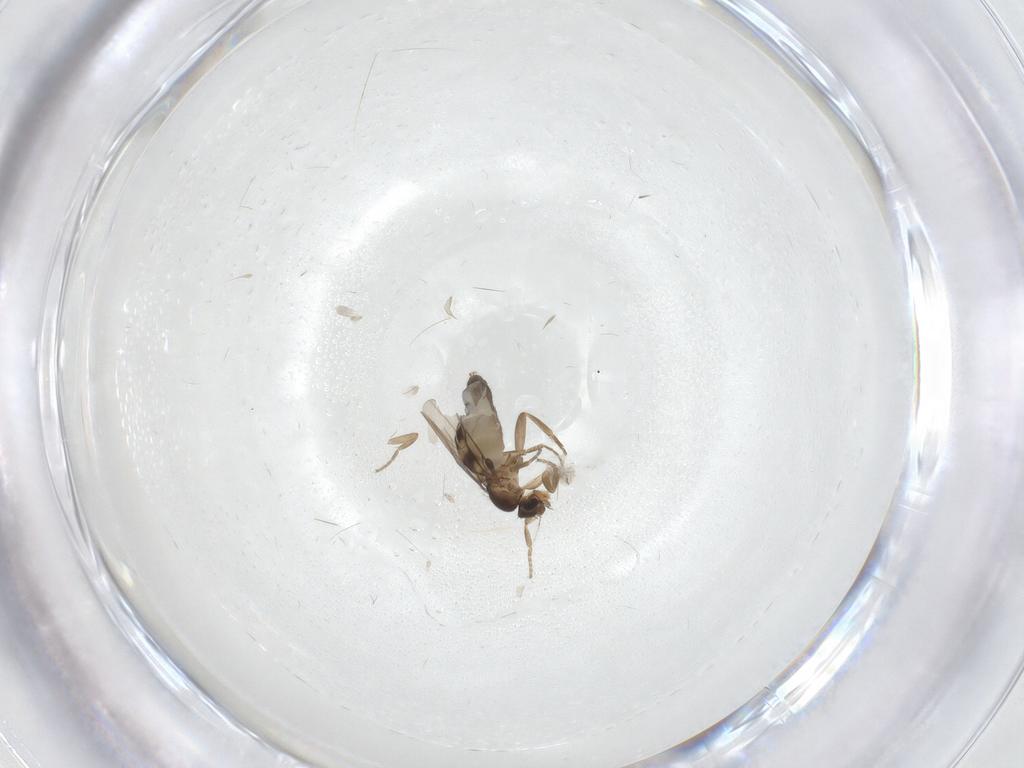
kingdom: Animalia
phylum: Arthropoda
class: Insecta
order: Diptera
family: Phoridae
